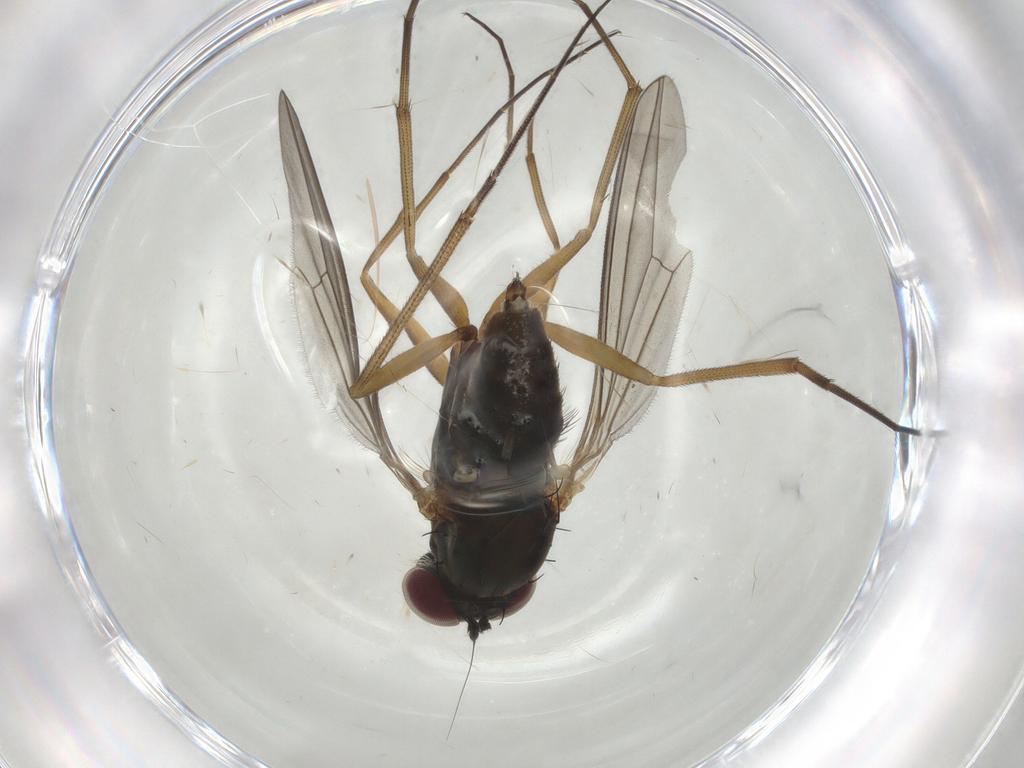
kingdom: Animalia
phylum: Arthropoda
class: Insecta
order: Diptera
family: Dolichopodidae
